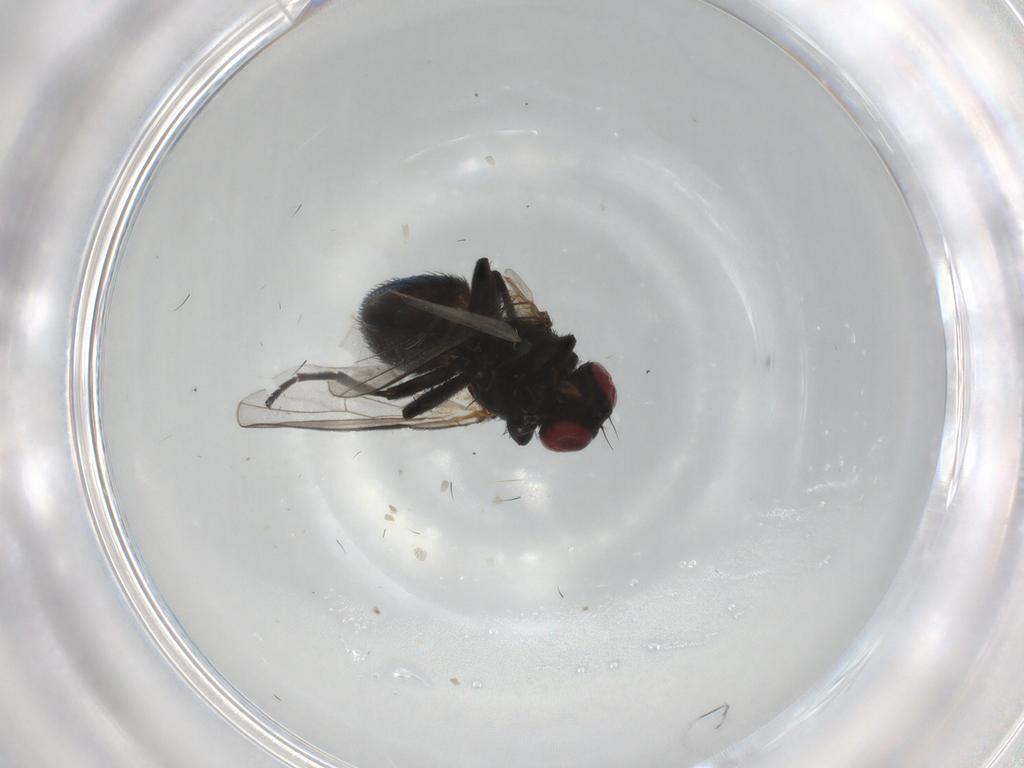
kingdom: Animalia
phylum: Arthropoda
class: Insecta
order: Diptera
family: Agromyzidae
